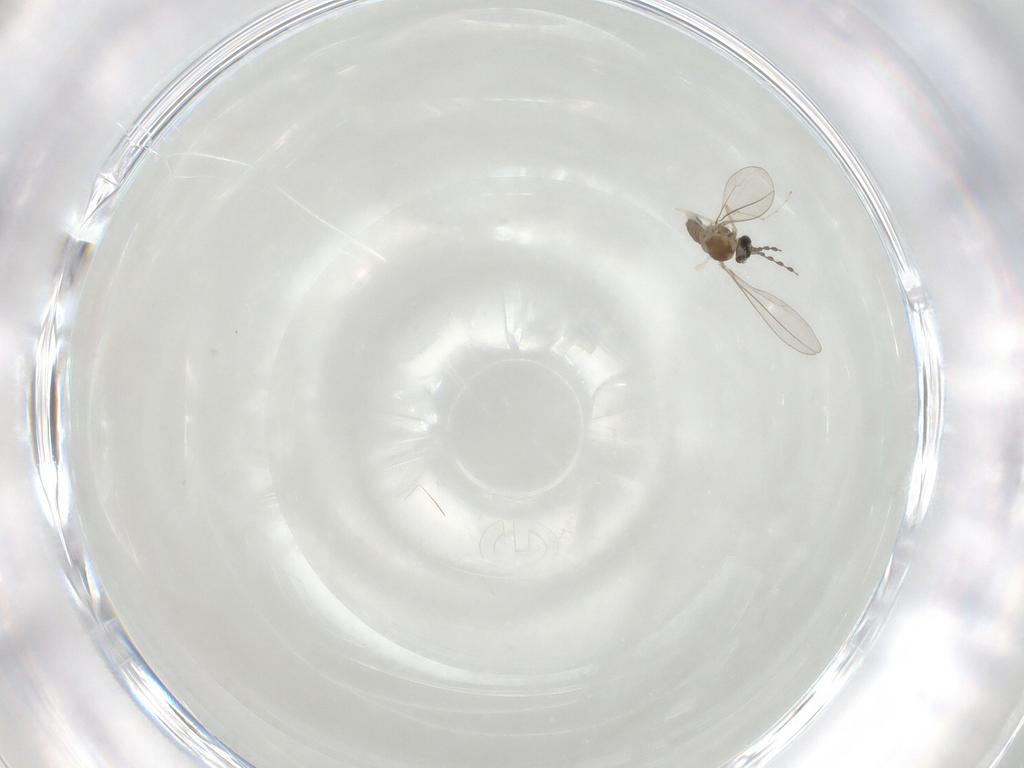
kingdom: Animalia
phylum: Arthropoda
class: Insecta
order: Diptera
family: Cecidomyiidae
